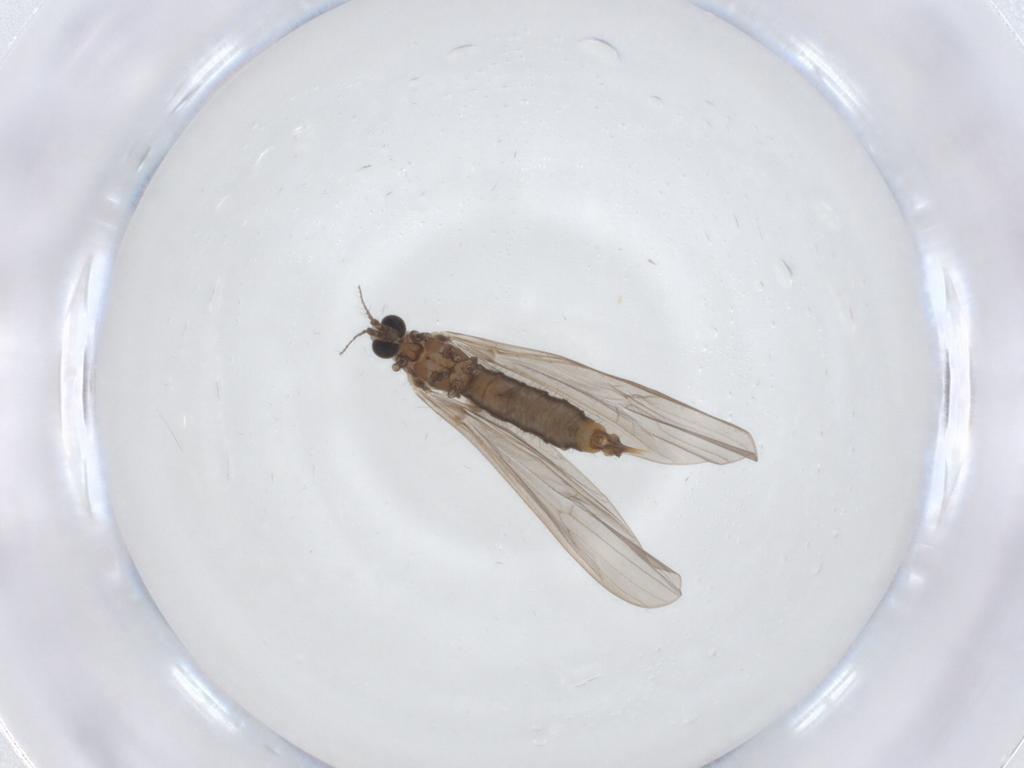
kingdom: Animalia
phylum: Arthropoda
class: Insecta
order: Diptera
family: Limoniidae
